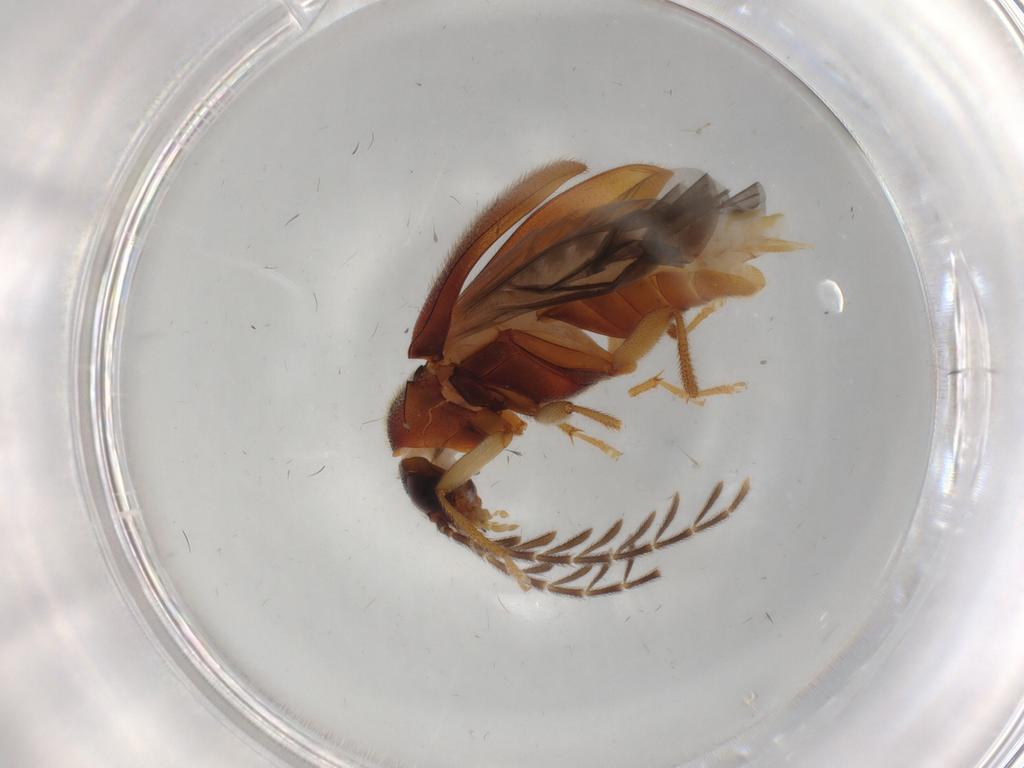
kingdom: Animalia
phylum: Arthropoda
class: Insecta
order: Coleoptera
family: Ptilodactylidae
